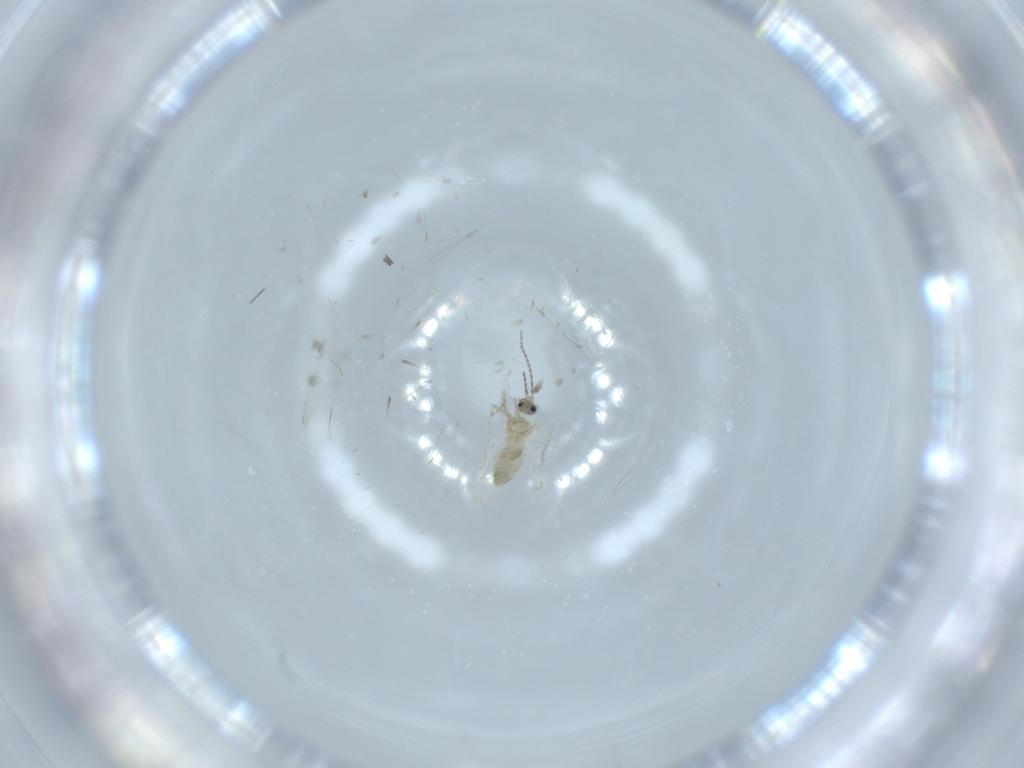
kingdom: Animalia
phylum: Arthropoda
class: Insecta
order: Diptera
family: Cecidomyiidae
